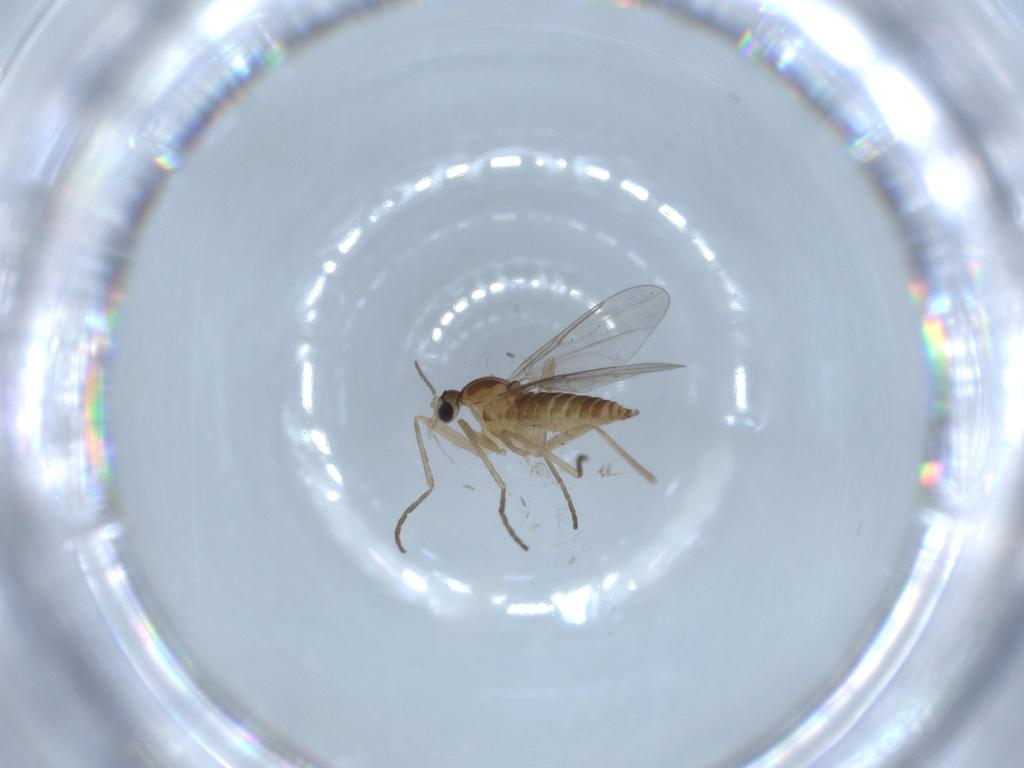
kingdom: Animalia
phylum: Arthropoda
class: Insecta
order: Diptera
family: Cecidomyiidae
